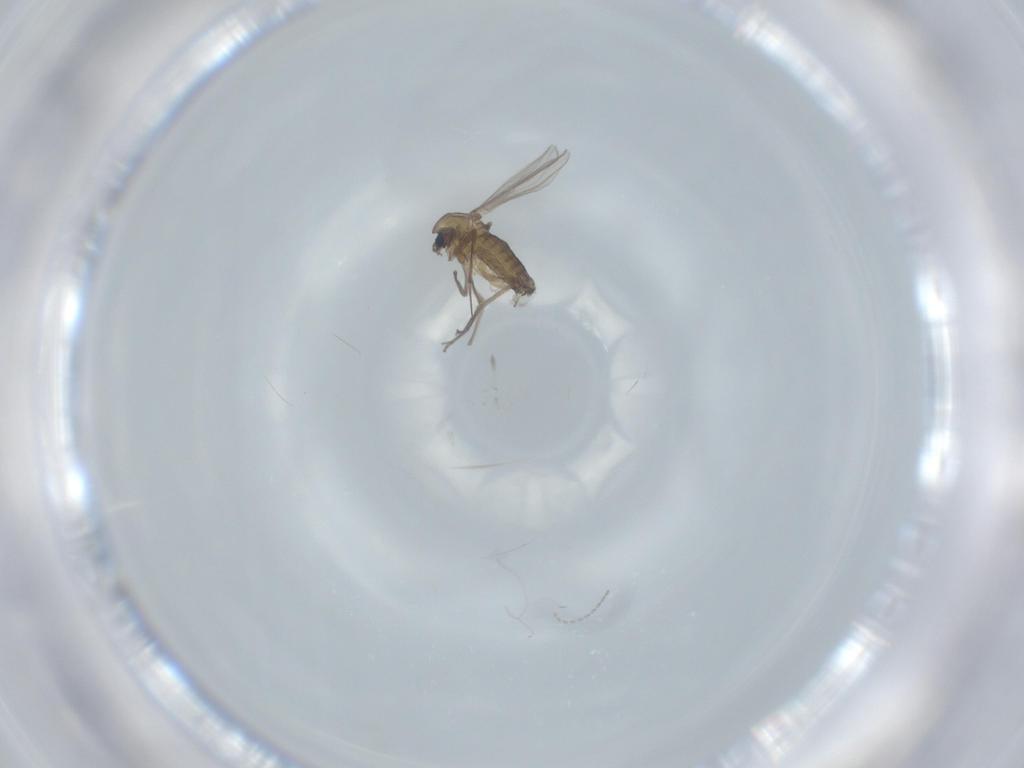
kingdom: Animalia
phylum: Arthropoda
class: Insecta
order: Diptera
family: Chironomidae
